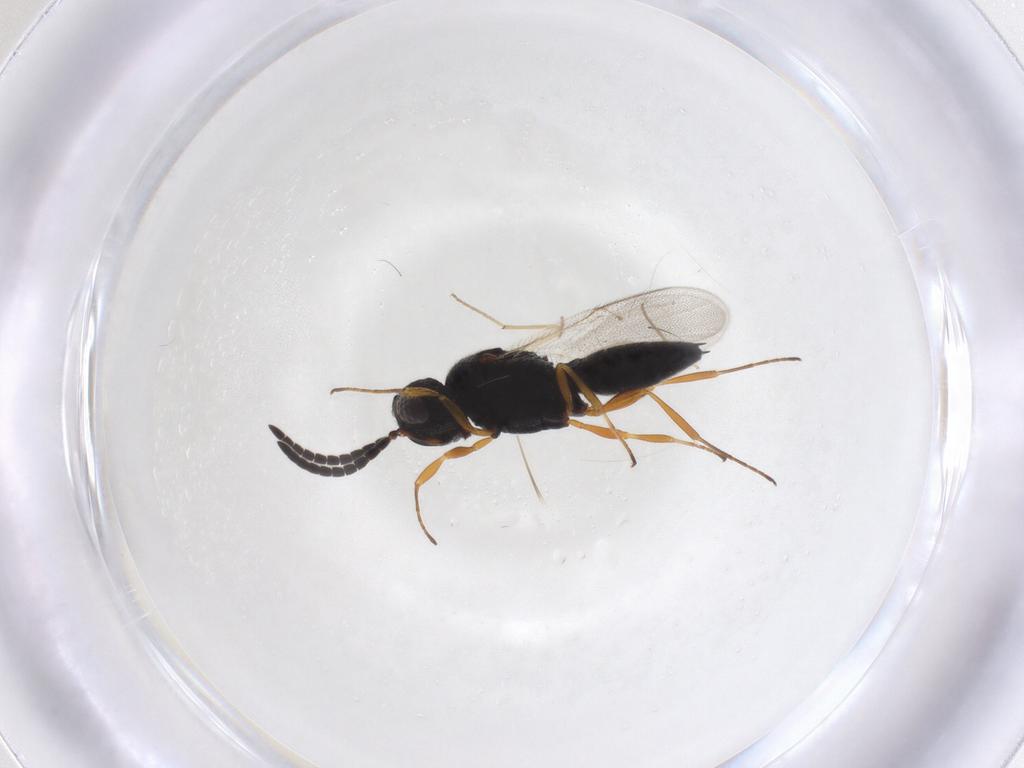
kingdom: Animalia
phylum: Arthropoda
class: Insecta
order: Hymenoptera
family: Scelionidae
